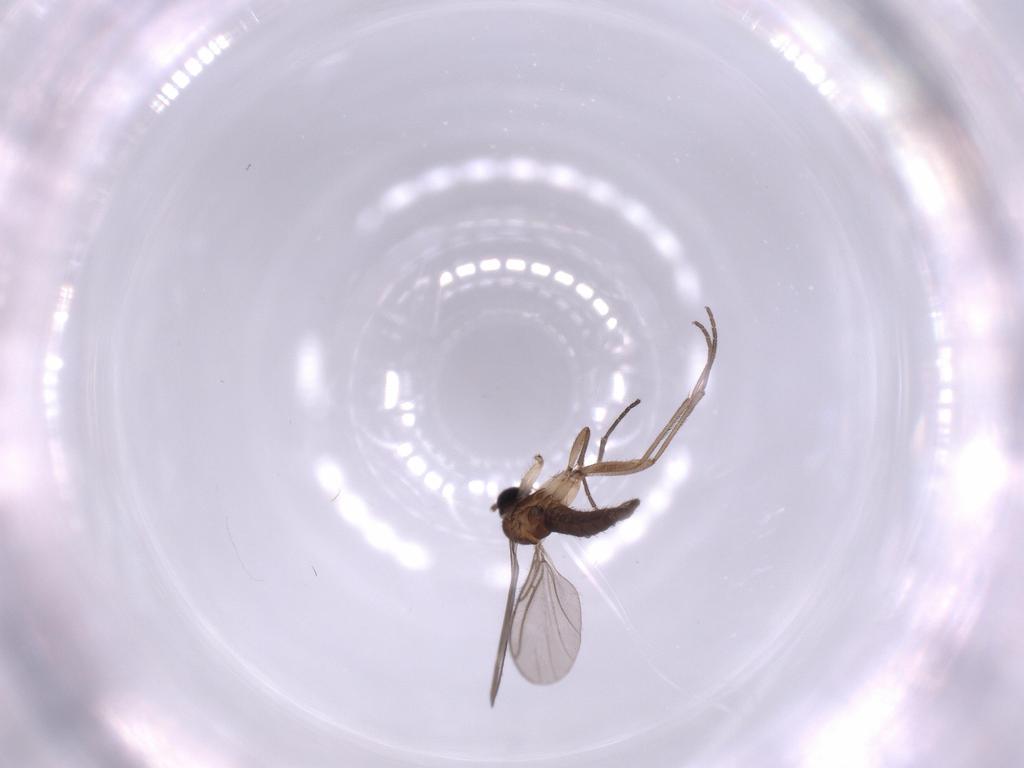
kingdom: Animalia
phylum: Arthropoda
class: Insecta
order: Diptera
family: Sciaridae
